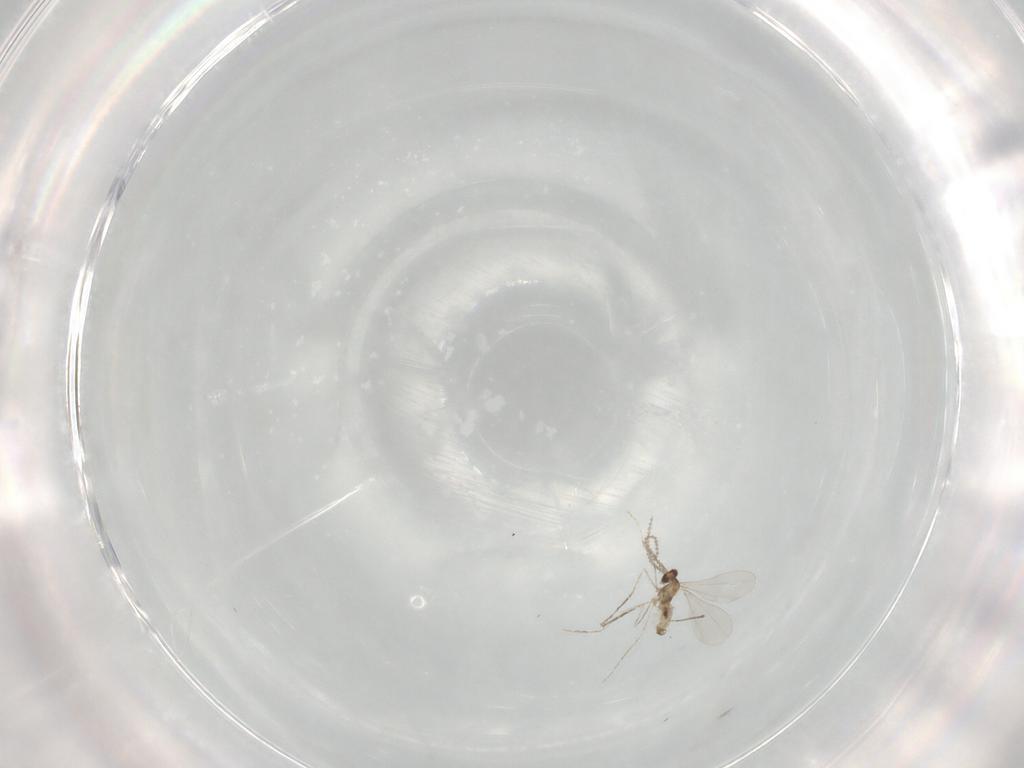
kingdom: Animalia
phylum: Arthropoda
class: Insecta
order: Diptera
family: Cecidomyiidae
